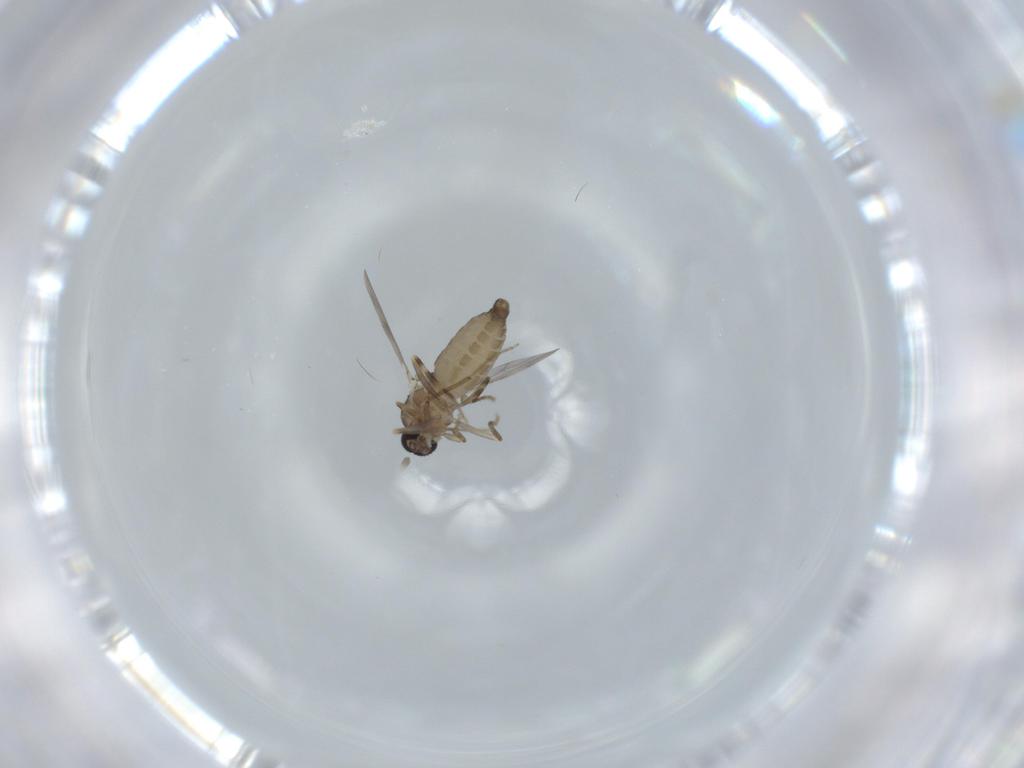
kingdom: Animalia
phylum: Arthropoda
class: Insecta
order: Diptera
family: Ceratopogonidae
